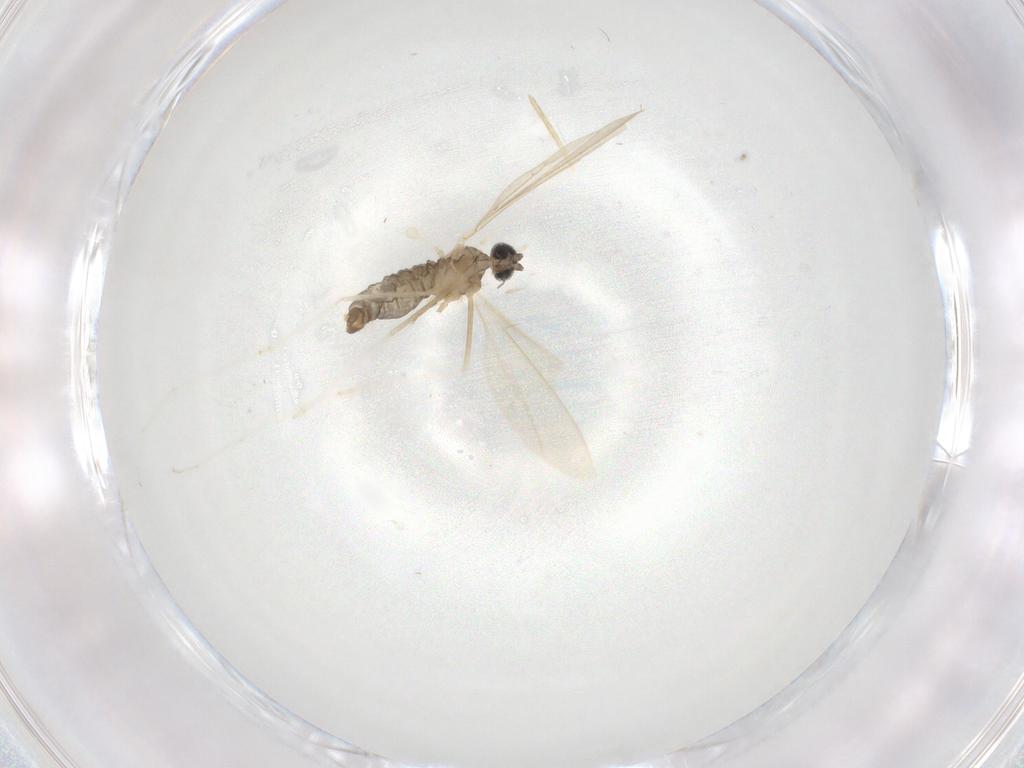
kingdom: Animalia
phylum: Arthropoda
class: Insecta
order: Diptera
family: Cecidomyiidae
